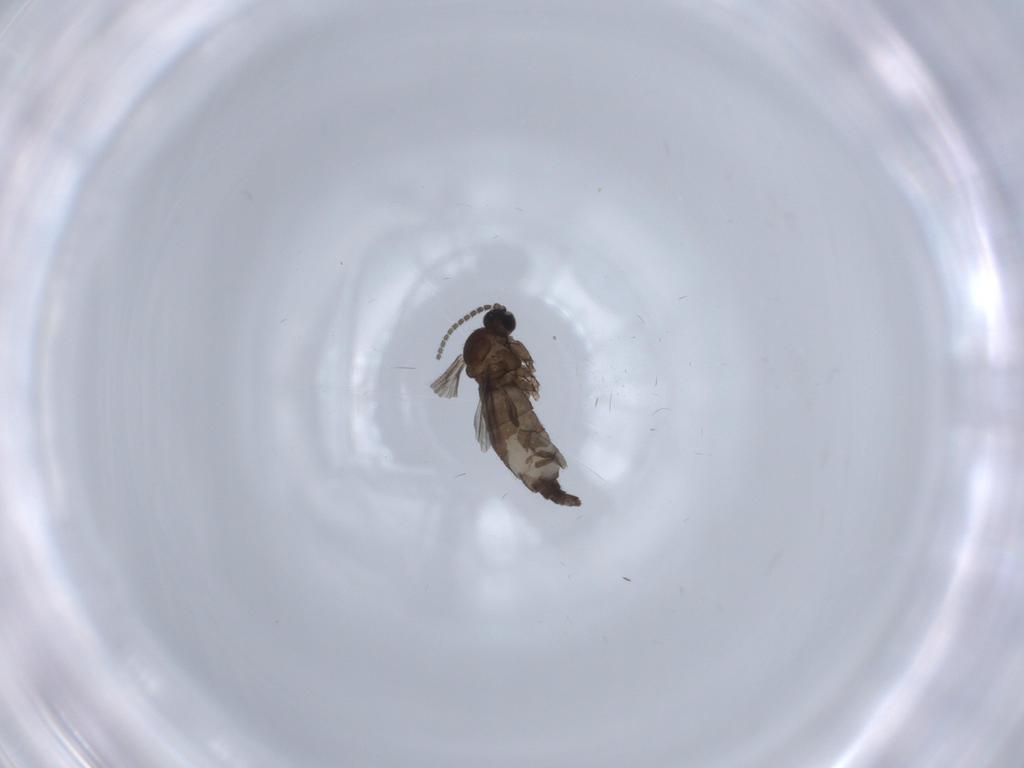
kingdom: Animalia
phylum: Arthropoda
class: Insecta
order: Diptera
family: Sciaridae
